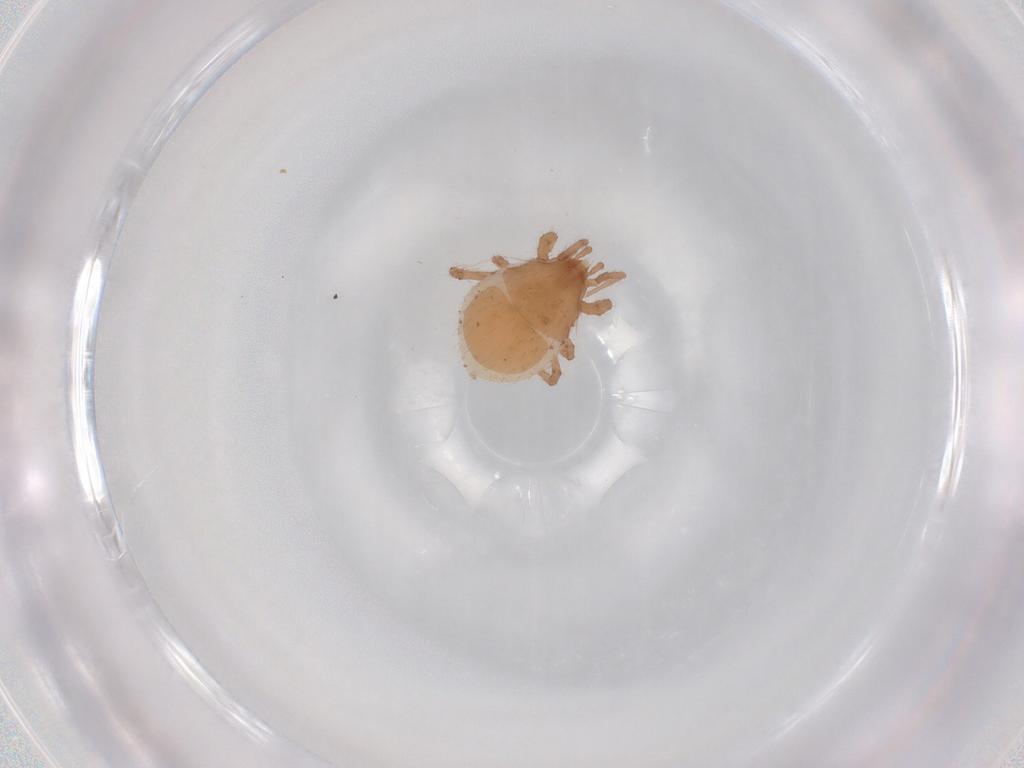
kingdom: Animalia
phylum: Arthropoda
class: Arachnida
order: Mesostigmata
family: Parasitidae
